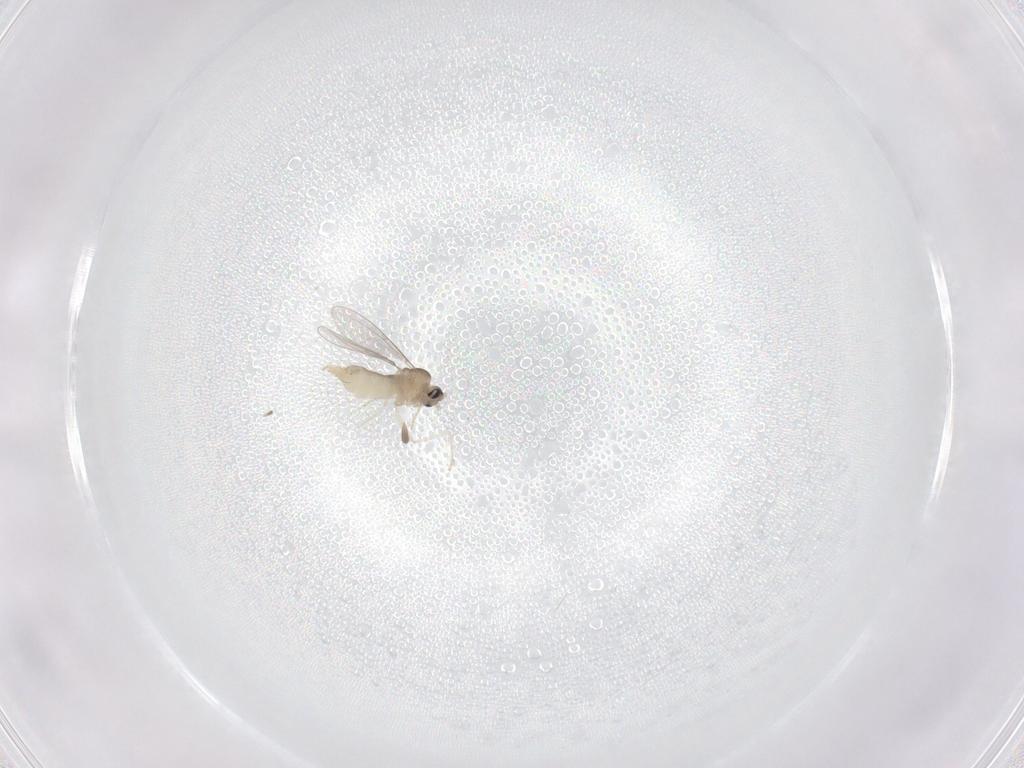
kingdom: Animalia
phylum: Arthropoda
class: Insecta
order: Diptera
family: Cecidomyiidae
